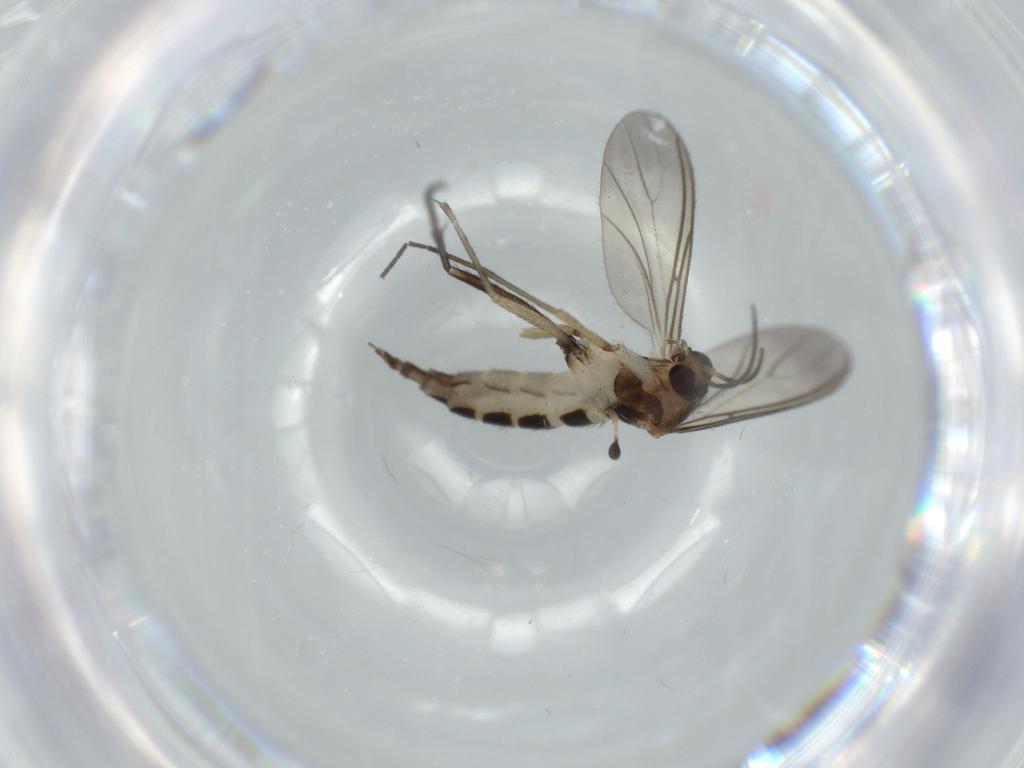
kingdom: Animalia
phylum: Arthropoda
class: Insecta
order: Diptera
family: Sciaridae
